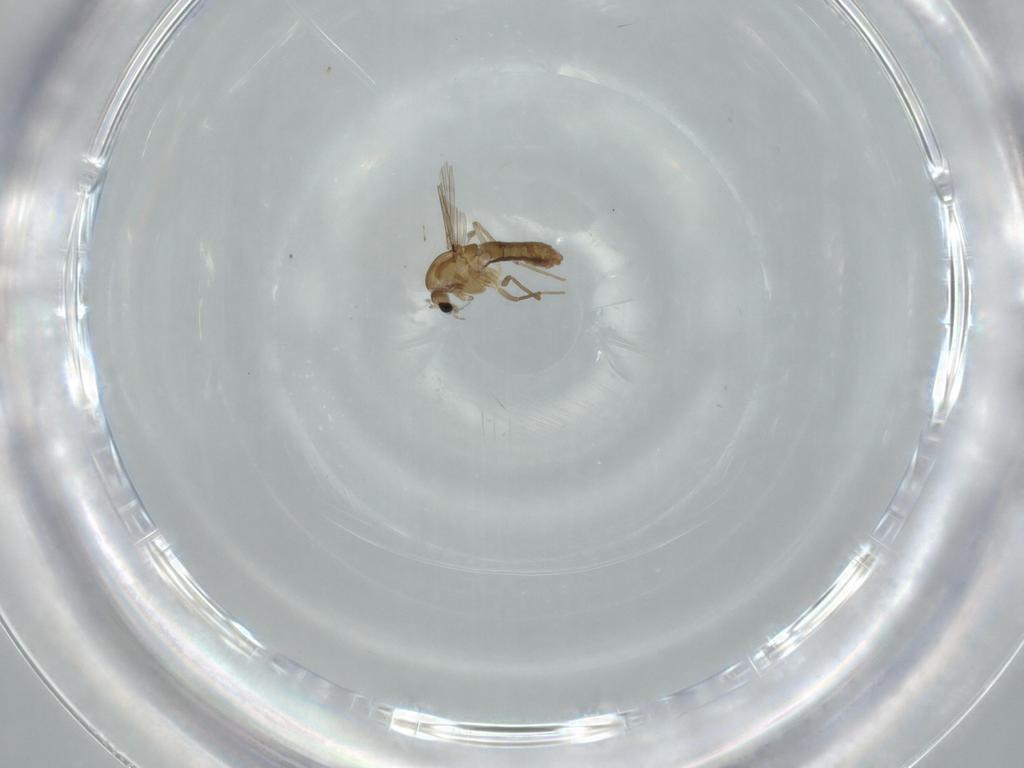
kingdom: Animalia
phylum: Arthropoda
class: Insecta
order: Diptera
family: Chironomidae
